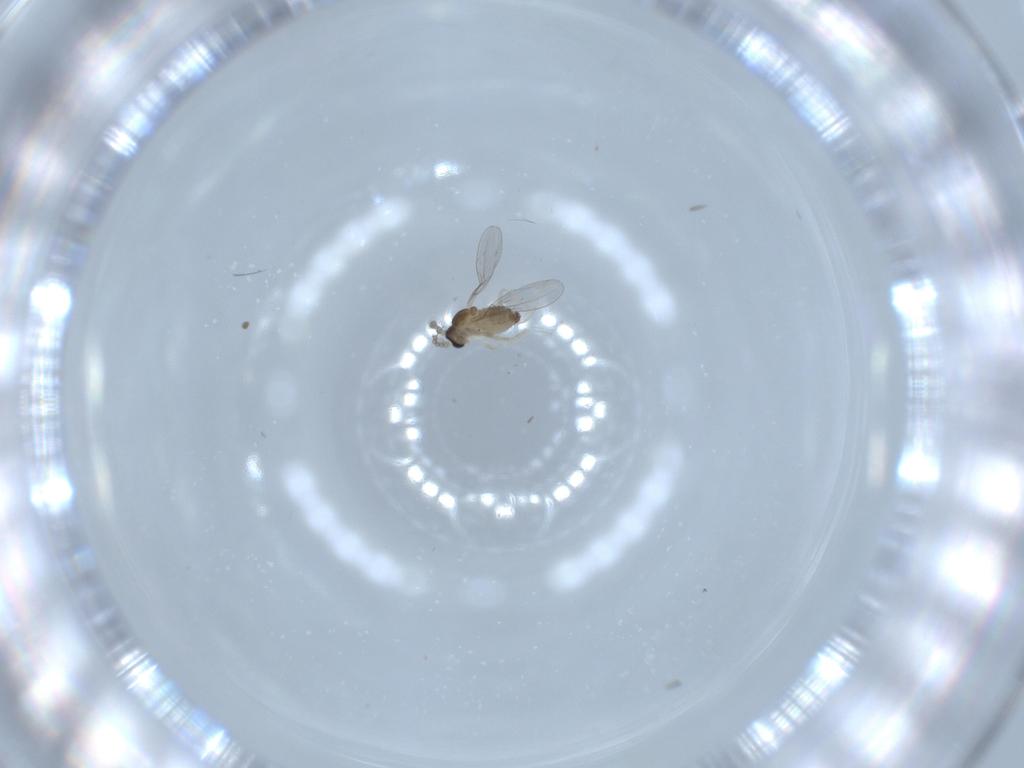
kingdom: Animalia
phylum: Arthropoda
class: Insecta
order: Diptera
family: Cecidomyiidae
